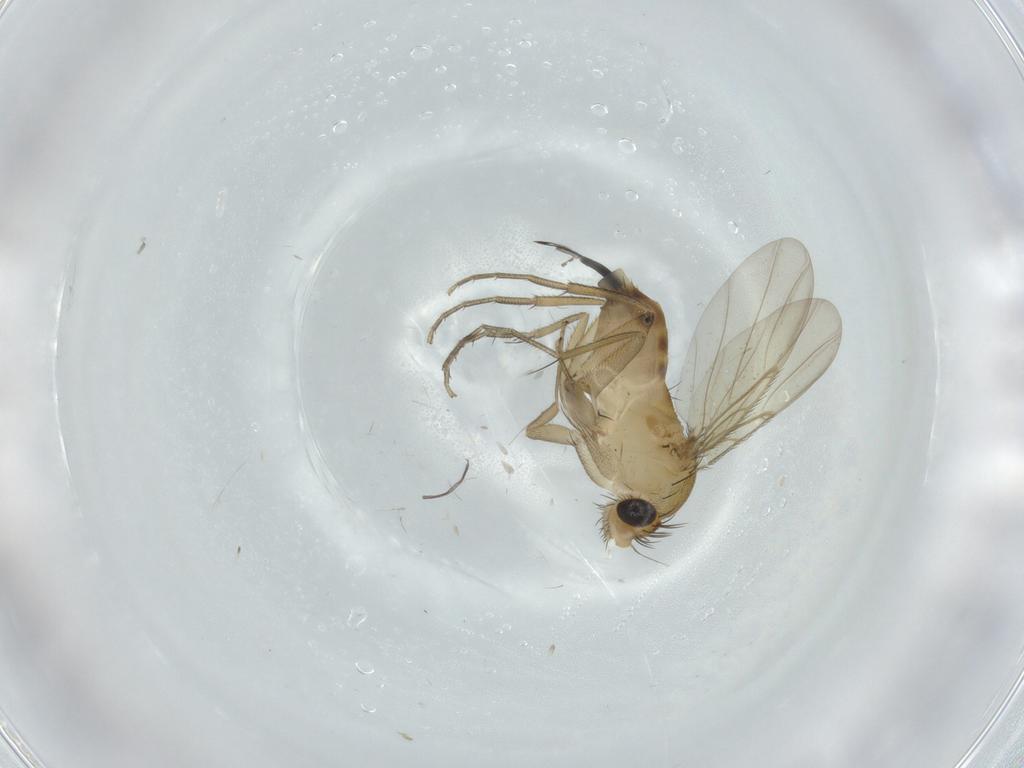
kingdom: Animalia
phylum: Arthropoda
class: Insecta
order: Diptera
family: Phoridae
